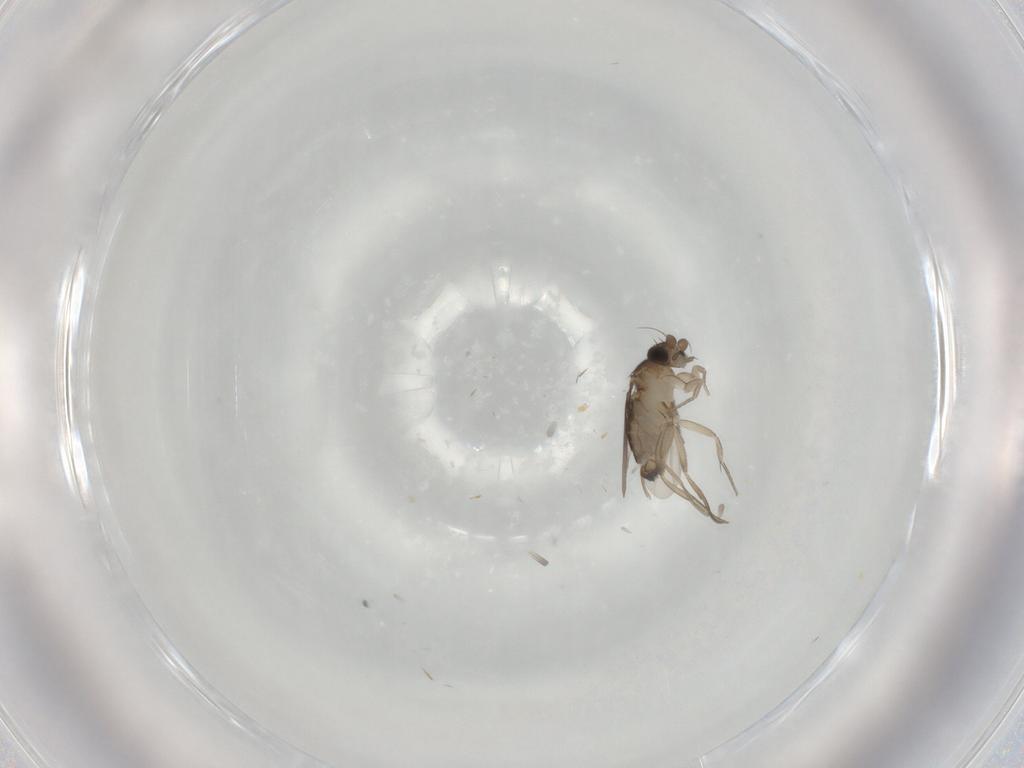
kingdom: Animalia
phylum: Arthropoda
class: Insecta
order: Diptera
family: Phoridae
